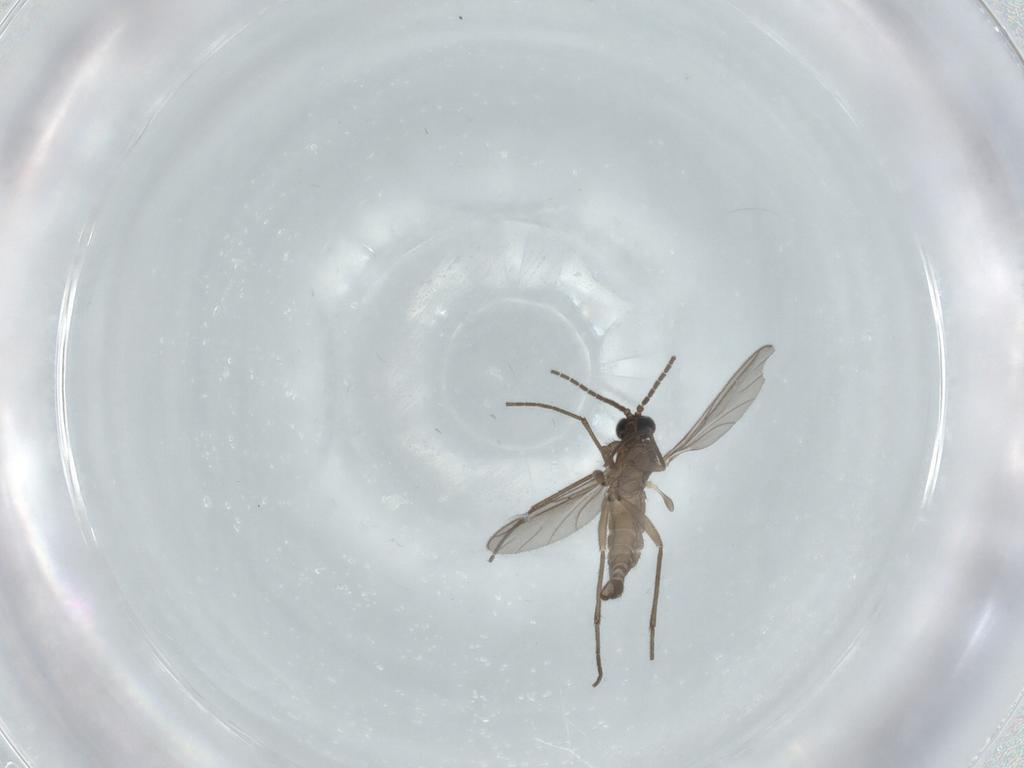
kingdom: Animalia
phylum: Arthropoda
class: Insecta
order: Diptera
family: Sciaridae
